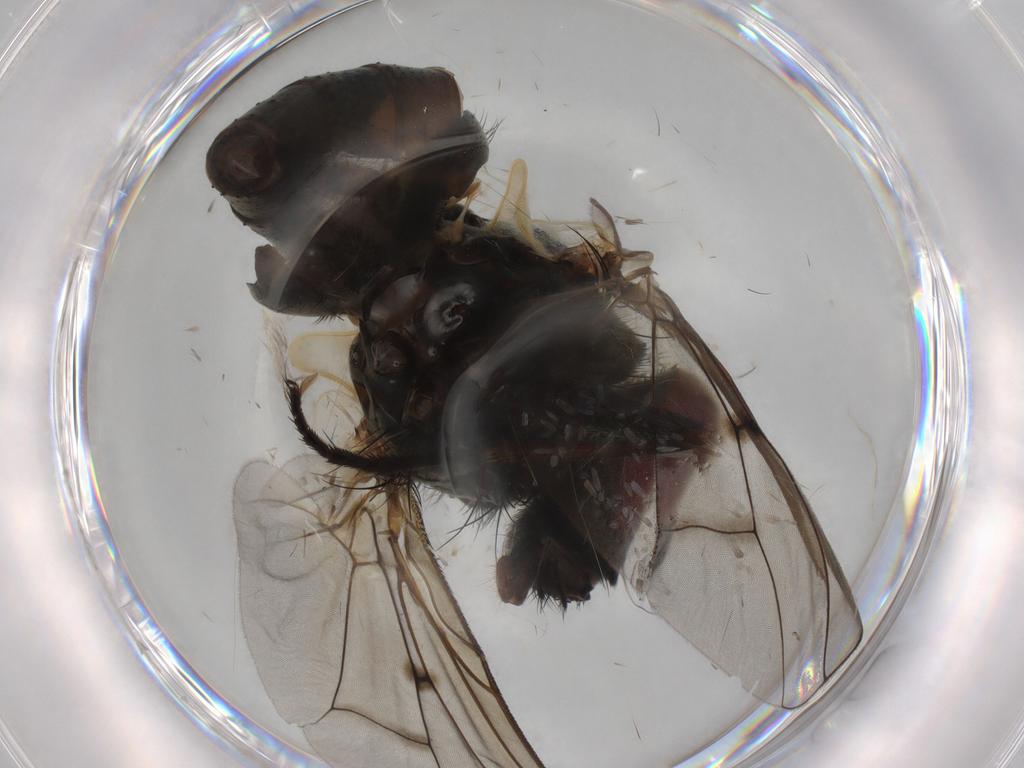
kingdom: Animalia
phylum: Arthropoda
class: Insecta
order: Diptera
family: Muscidae
